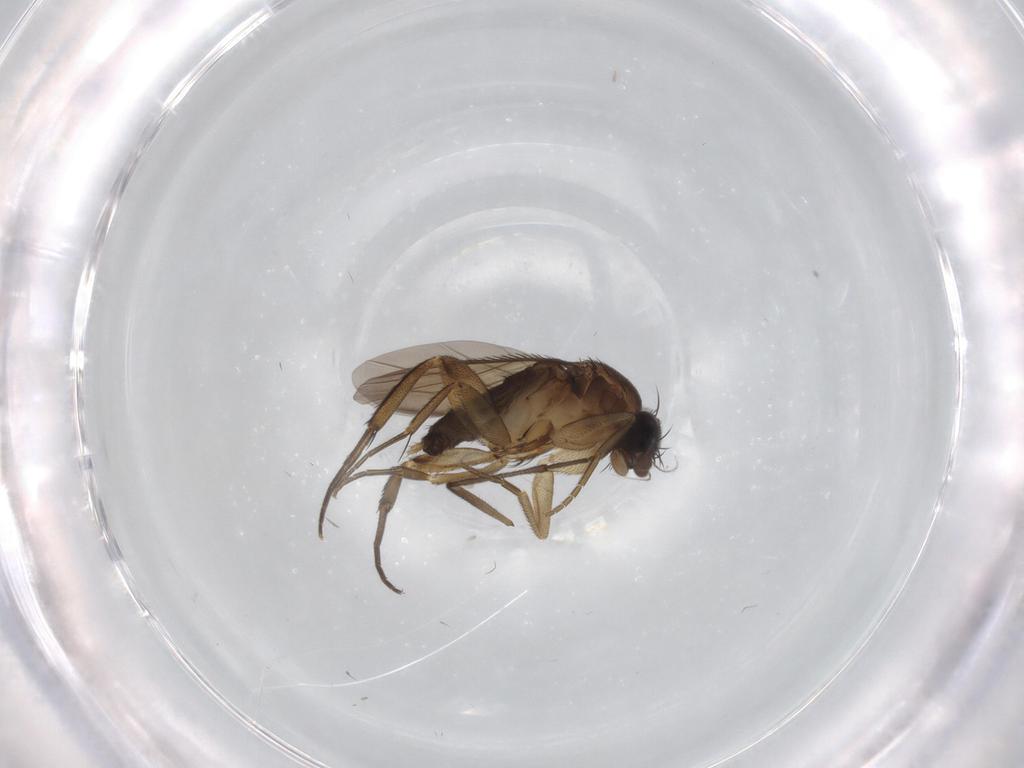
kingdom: Animalia
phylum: Arthropoda
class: Insecta
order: Diptera
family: Phoridae
